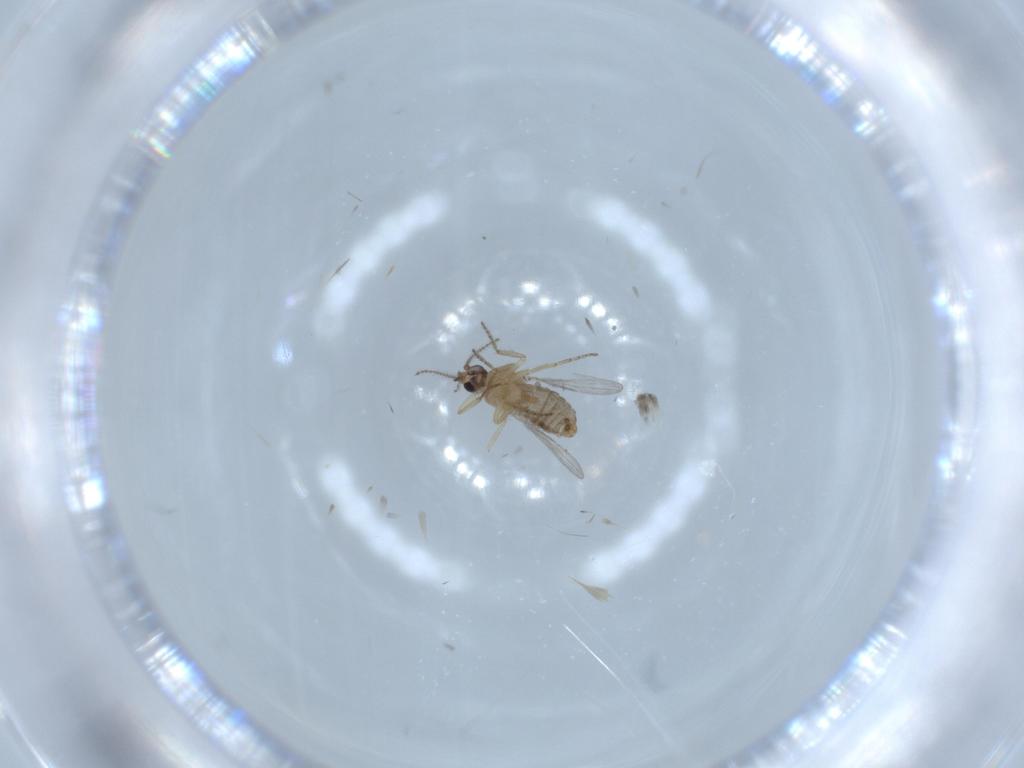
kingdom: Animalia
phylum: Arthropoda
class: Insecta
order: Diptera
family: Ceratopogonidae
